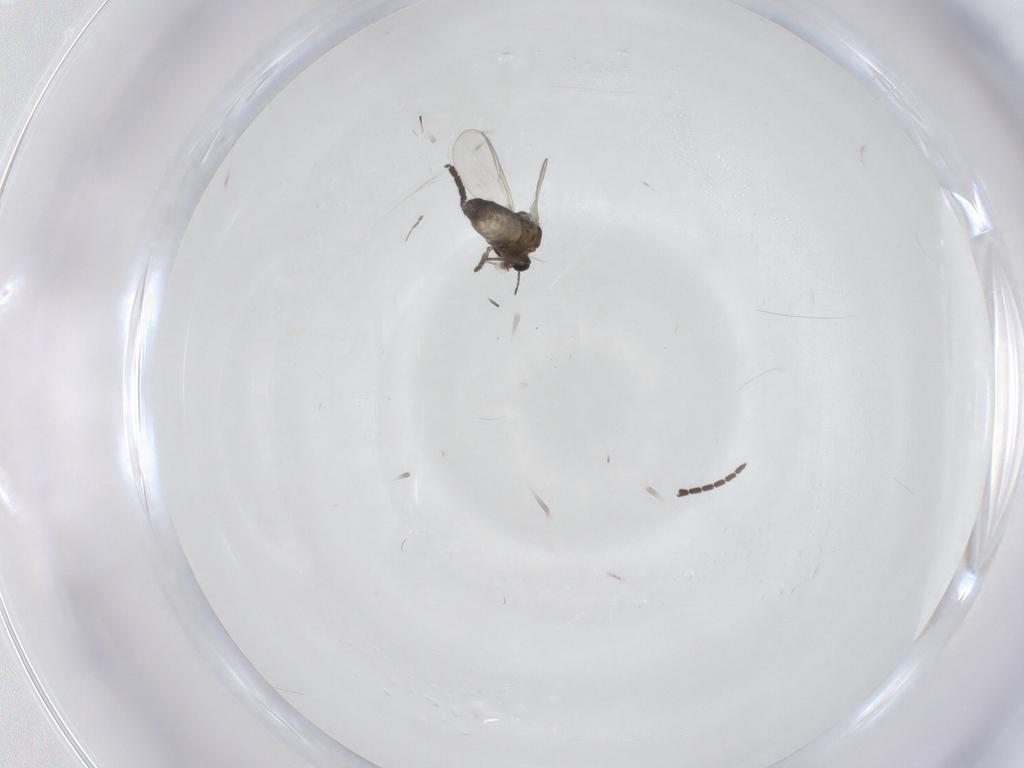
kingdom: Animalia
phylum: Arthropoda
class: Insecta
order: Diptera
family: Chironomidae
